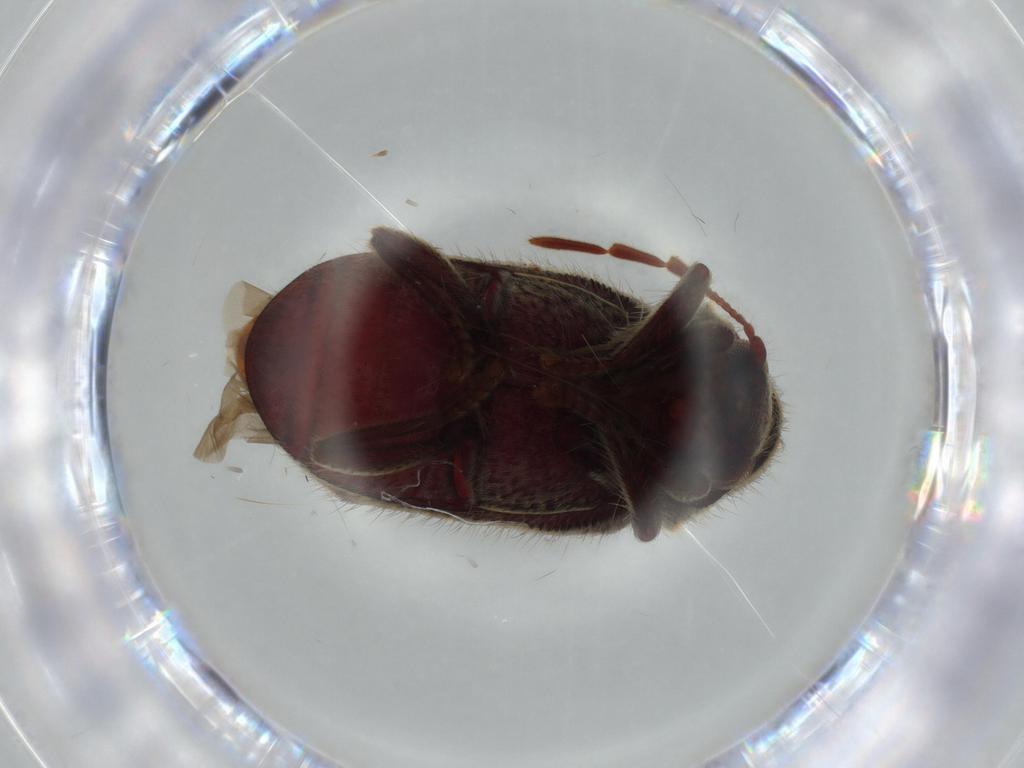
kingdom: Animalia
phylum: Arthropoda
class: Insecta
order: Coleoptera
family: Ptinidae
